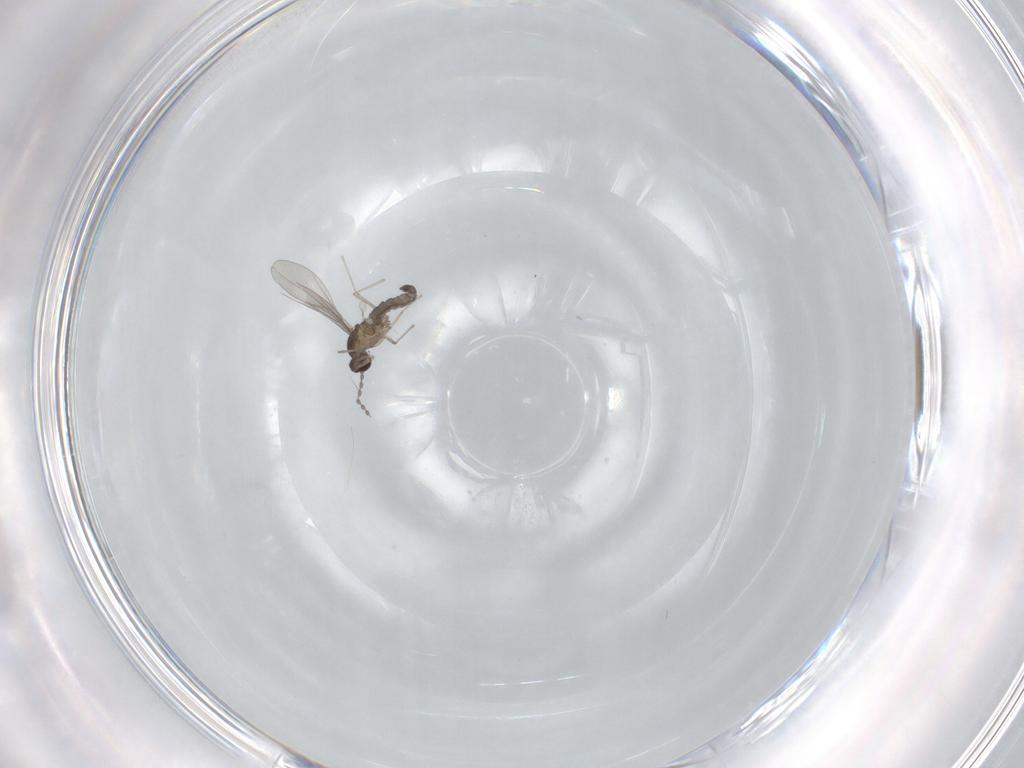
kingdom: Animalia
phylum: Arthropoda
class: Insecta
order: Diptera
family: Cecidomyiidae
